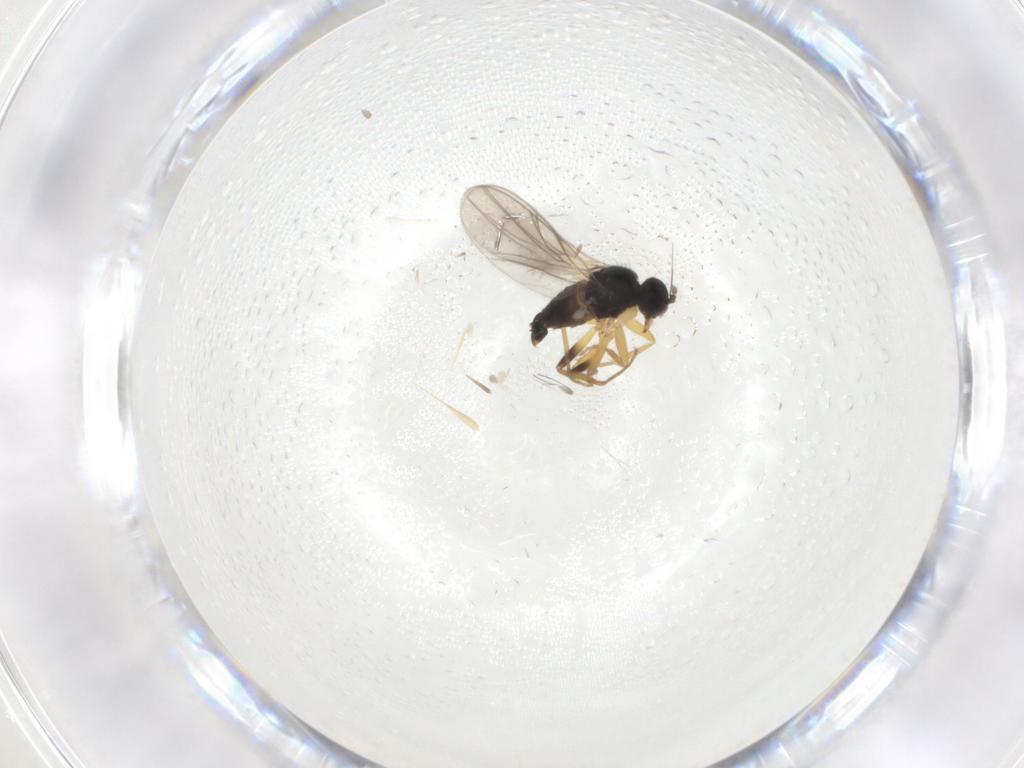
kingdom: Animalia
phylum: Arthropoda
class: Insecta
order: Diptera
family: Hybotidae
